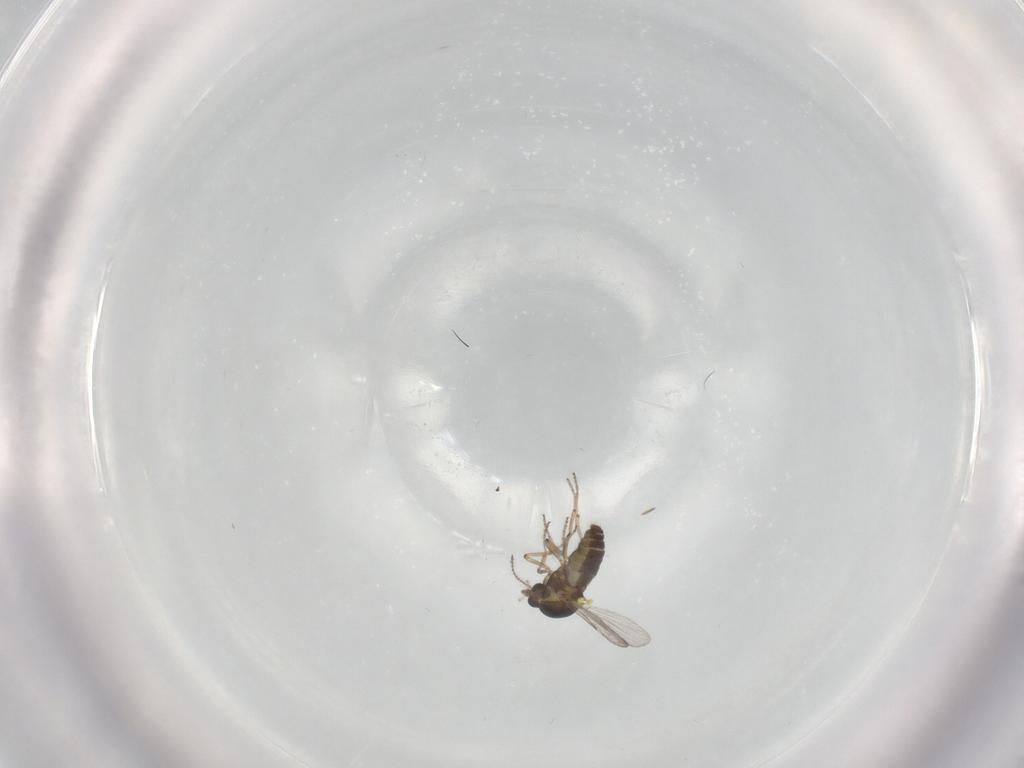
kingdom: Animalia
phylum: Arthropoda
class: Insecta
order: Diptera
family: Ceratopogonidae
